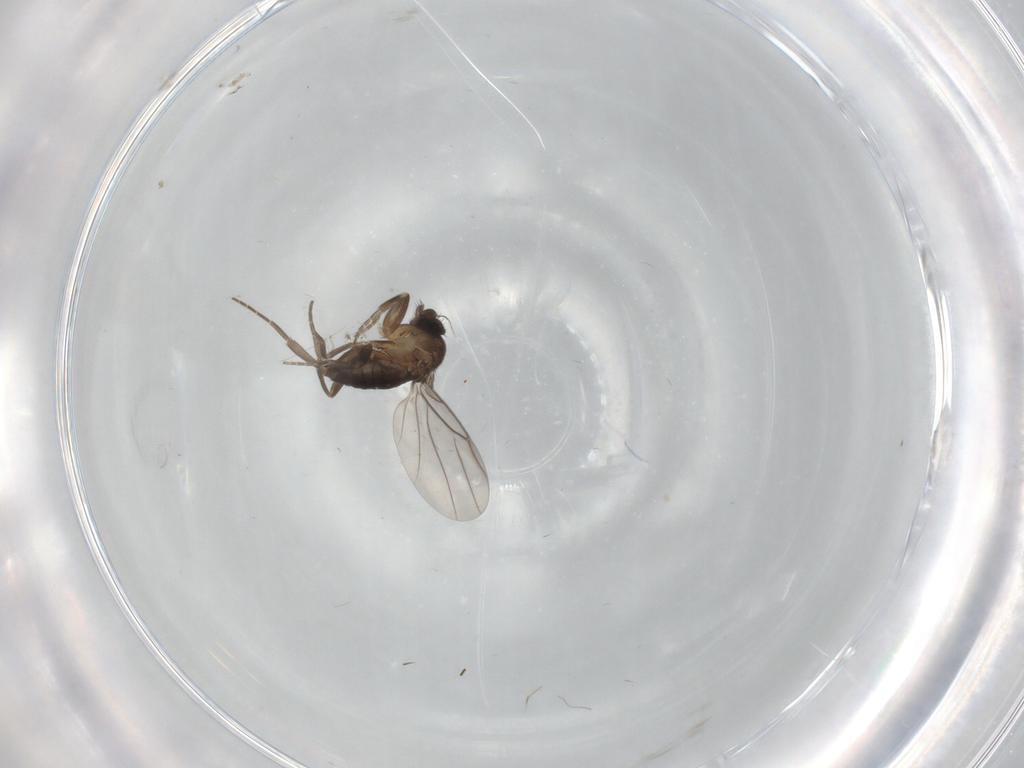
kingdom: Animalia
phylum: Arthropoda
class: Insecta
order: Diptera
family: Phoridae
